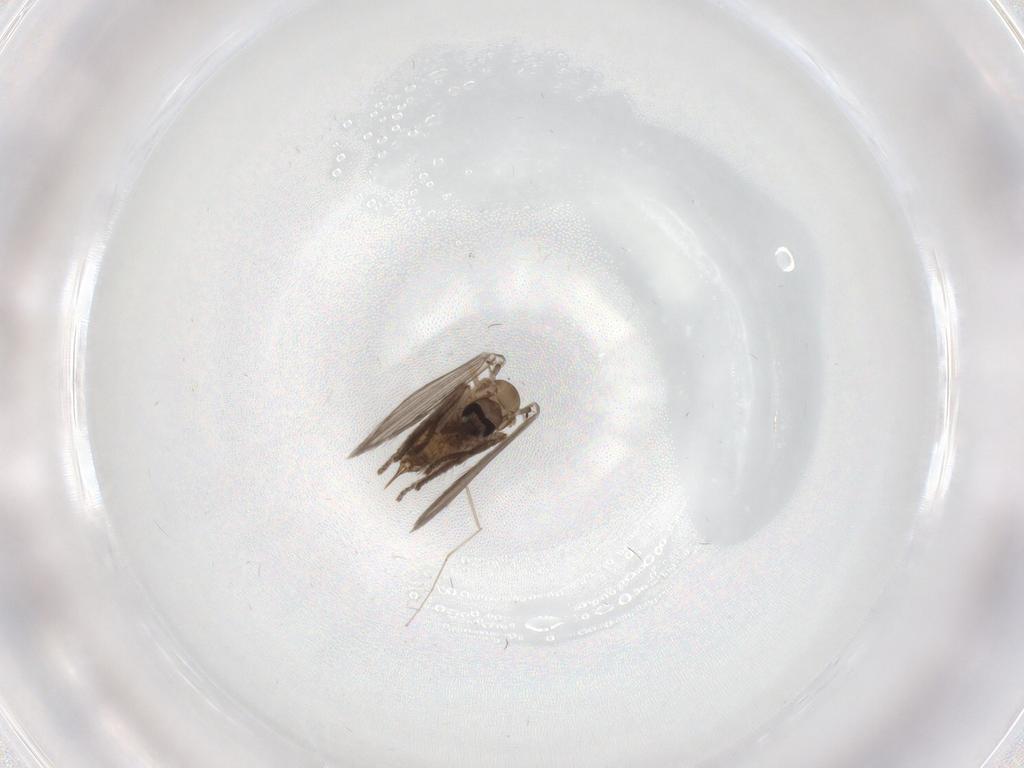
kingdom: Animalia
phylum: Arthropoda
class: Insecta
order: Diptera
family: Psychodidae
